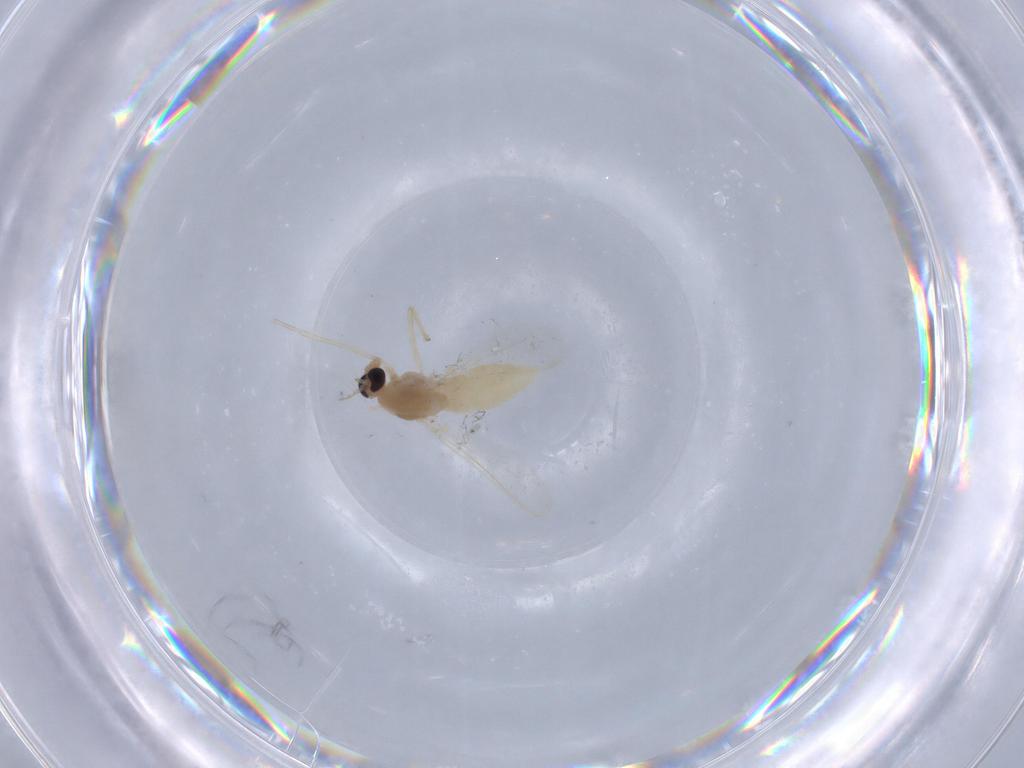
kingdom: Animalia
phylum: Arthropoda
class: Insecta
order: Diptera
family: Chironomidae
